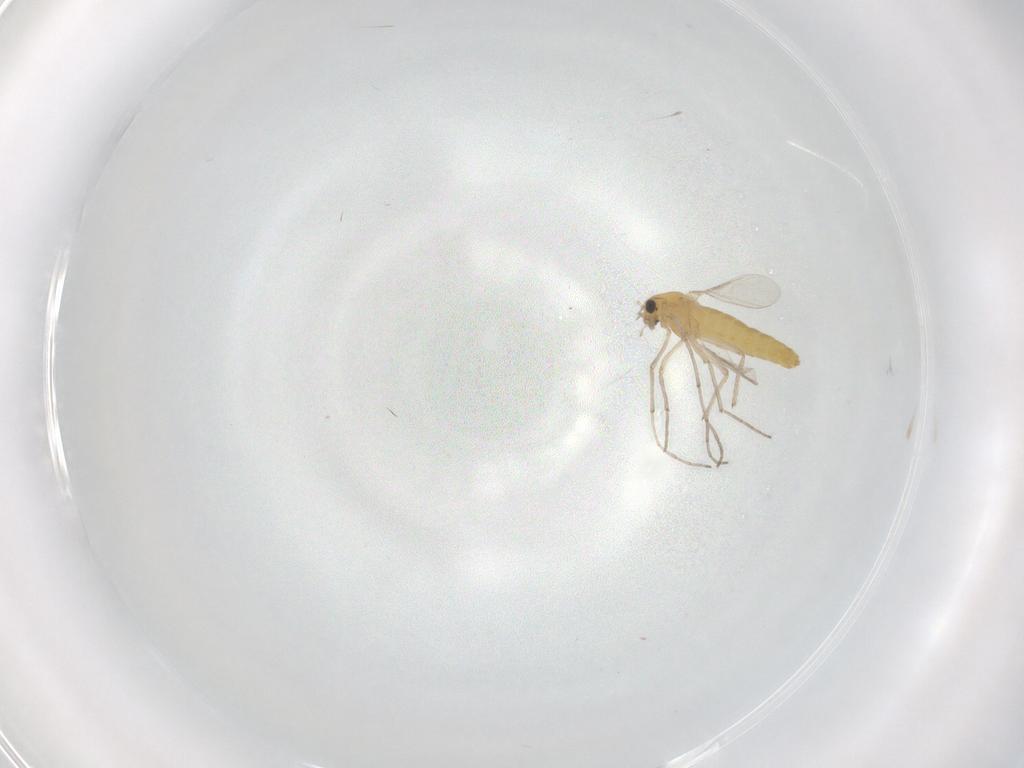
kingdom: Animalia
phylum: Arthropoda
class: Insecta
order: Diptera
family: Chironomidae
